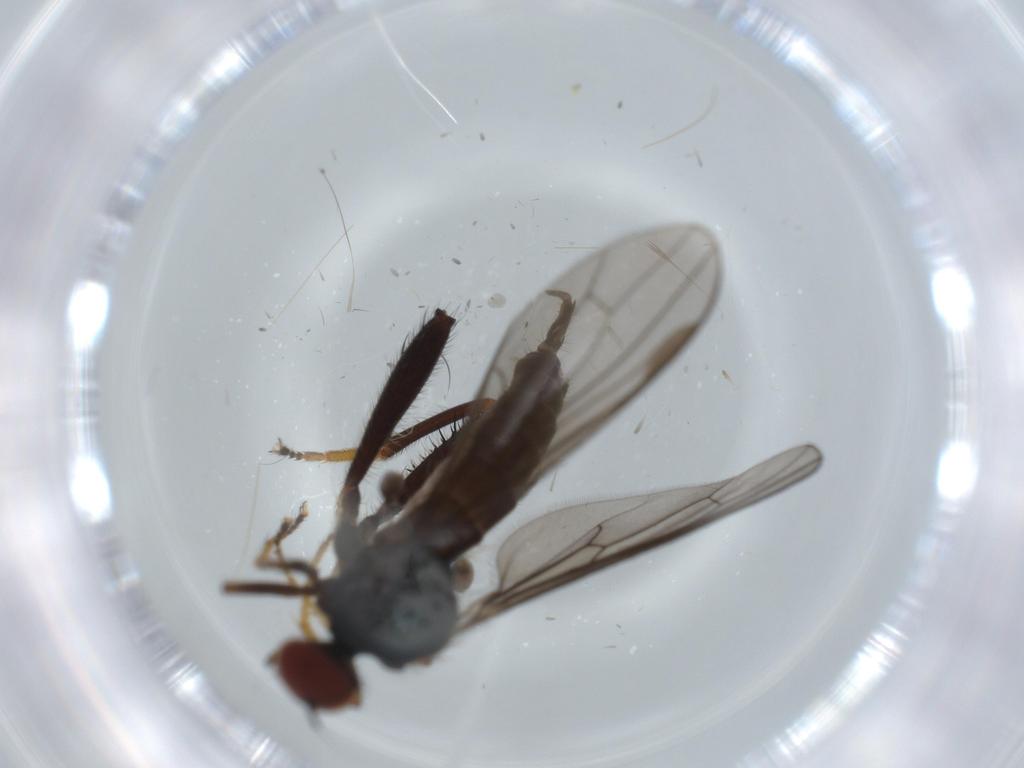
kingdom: Animalia
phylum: Arthropoda
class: Insecta
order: Diptera
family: Hybotidae
